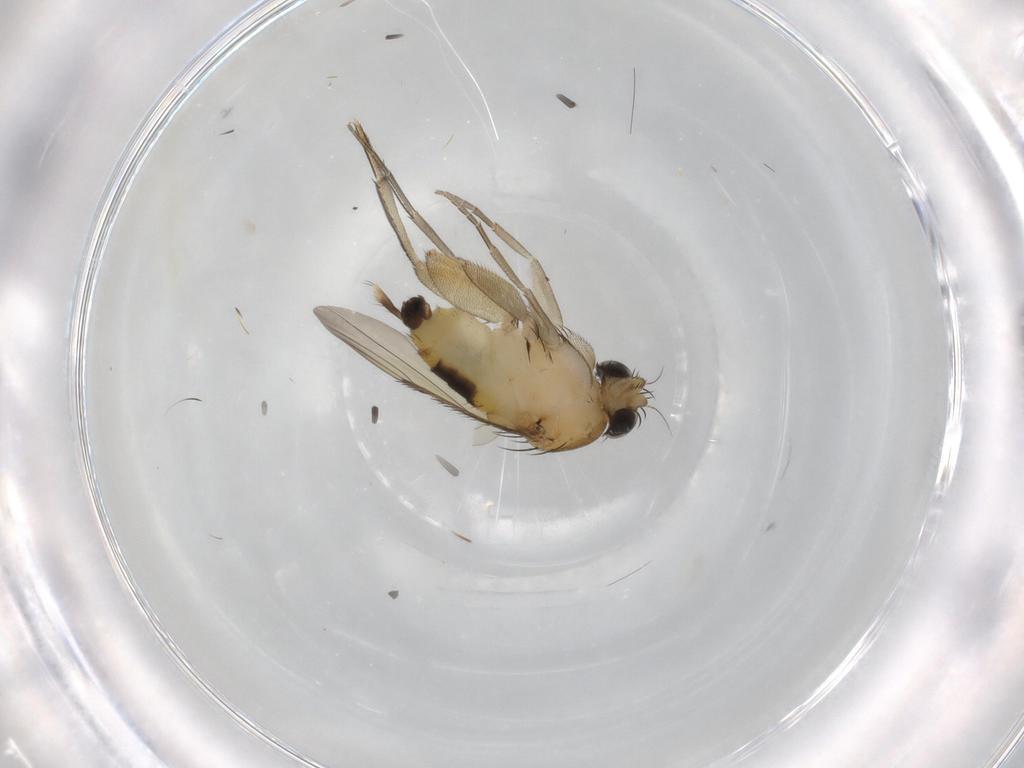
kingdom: Animalia
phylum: Arthropoda
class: Insecta
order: Diptera
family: Phoridae
